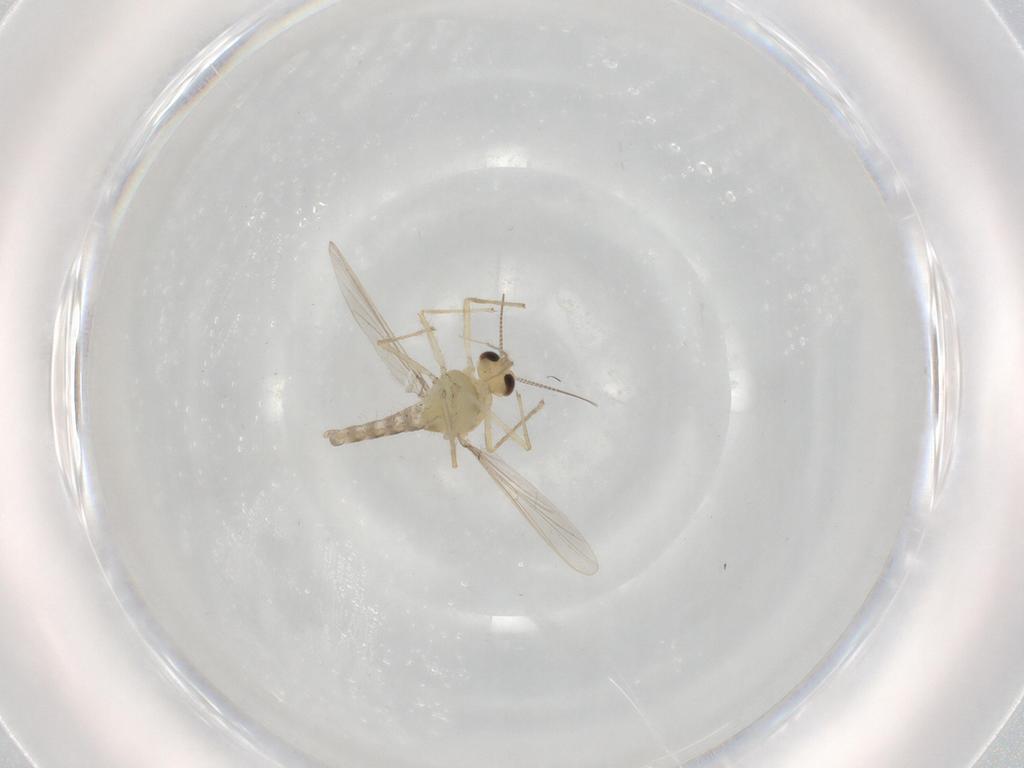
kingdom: Animalia
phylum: Arthropoda
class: Insecta
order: Diptera
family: Chironomidae
